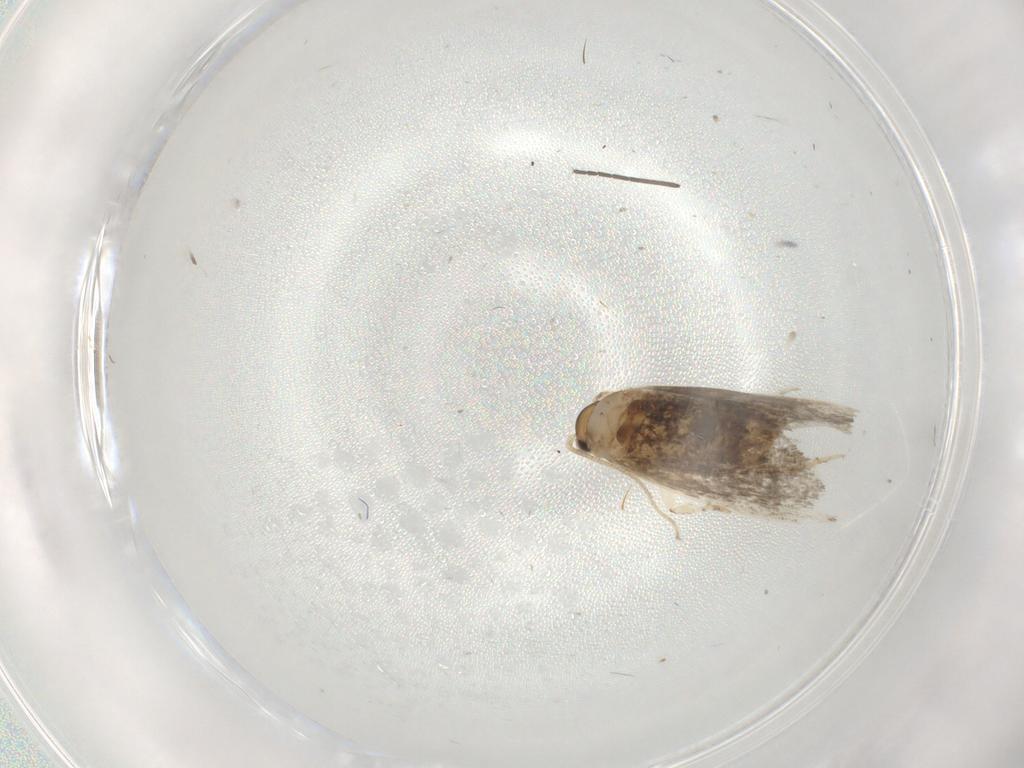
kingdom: Animalia
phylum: Arthropoda
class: Insecta
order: Lepidoptera
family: Tineidae
